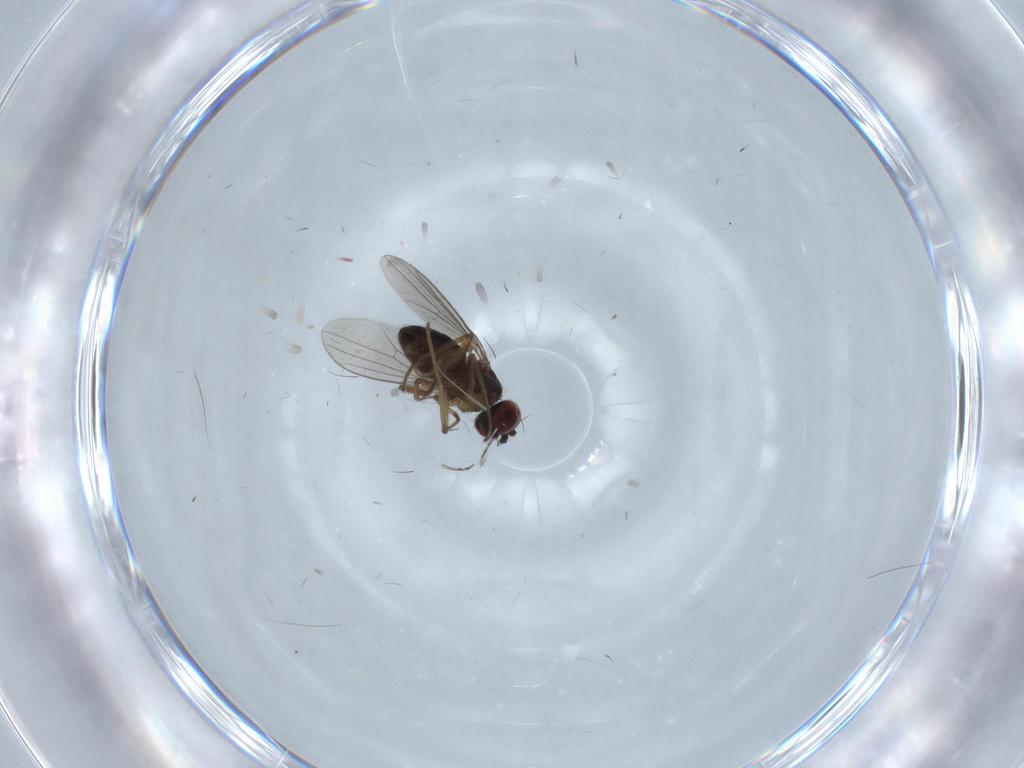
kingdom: Animalia
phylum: Arthropoda
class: Insecta
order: Diptera
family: Dolichopodidae
